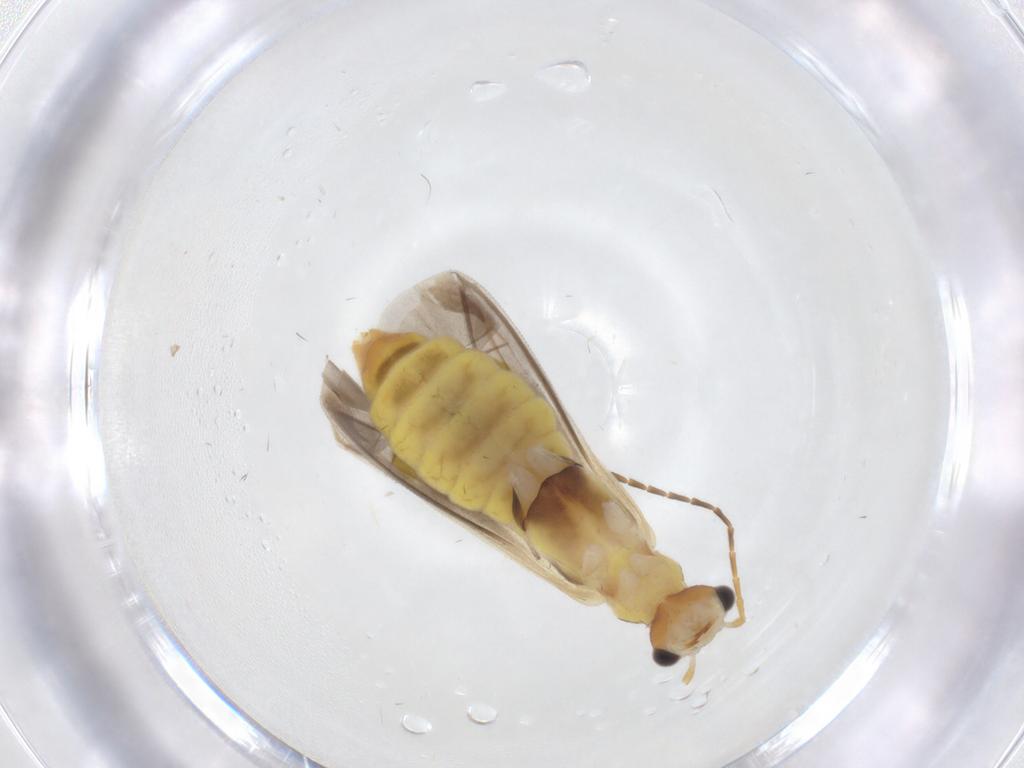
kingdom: Animalia
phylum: Arthropoda
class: Insecta
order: Coleoptera
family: Cantharidae
